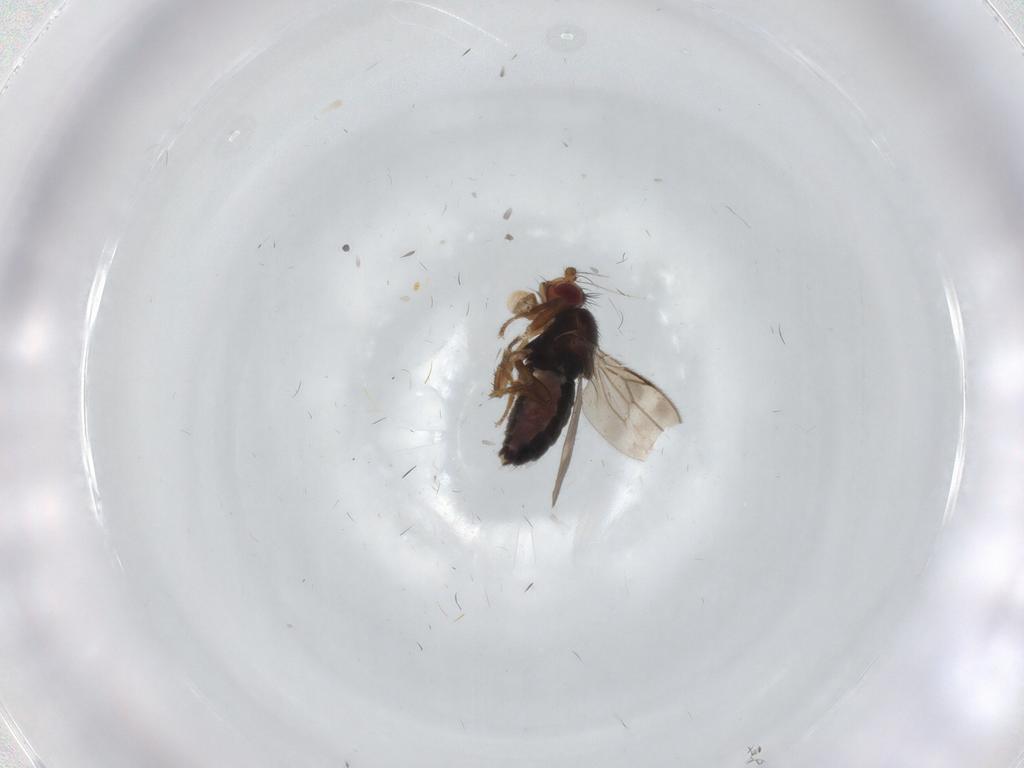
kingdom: Animalia
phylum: Arthropoda
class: Insecta
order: Diptera
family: Sphaeroceridae
